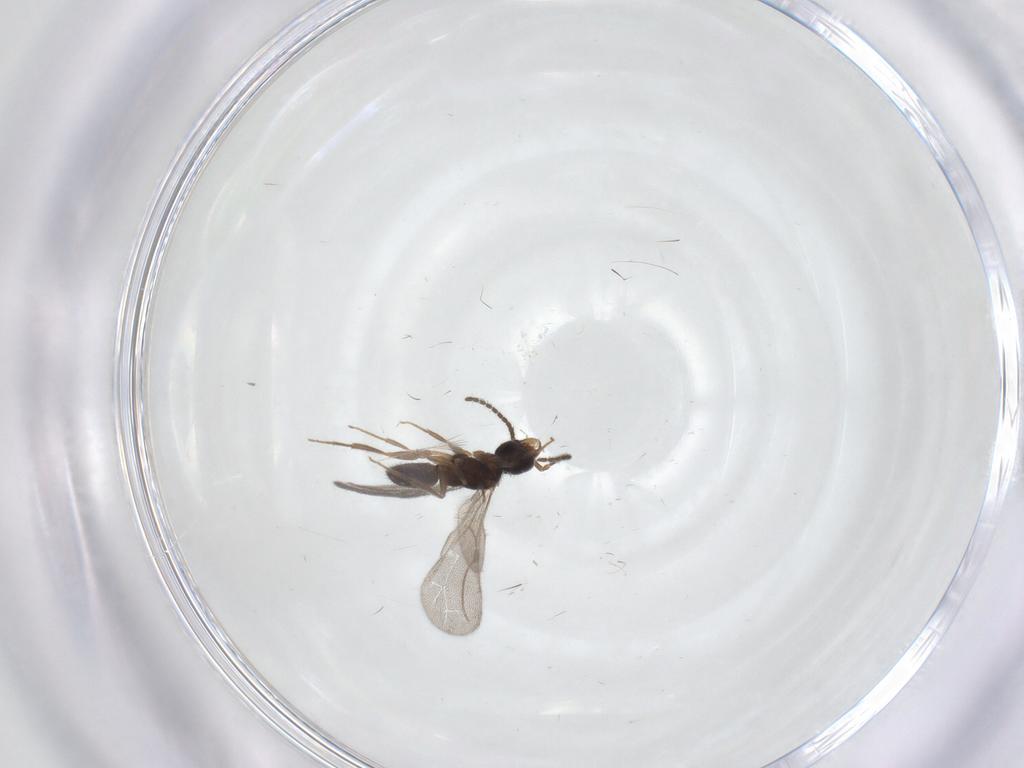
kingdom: Animalia
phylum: Arthropoda
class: Insecta
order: Hymenoptera
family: Bethylidae
